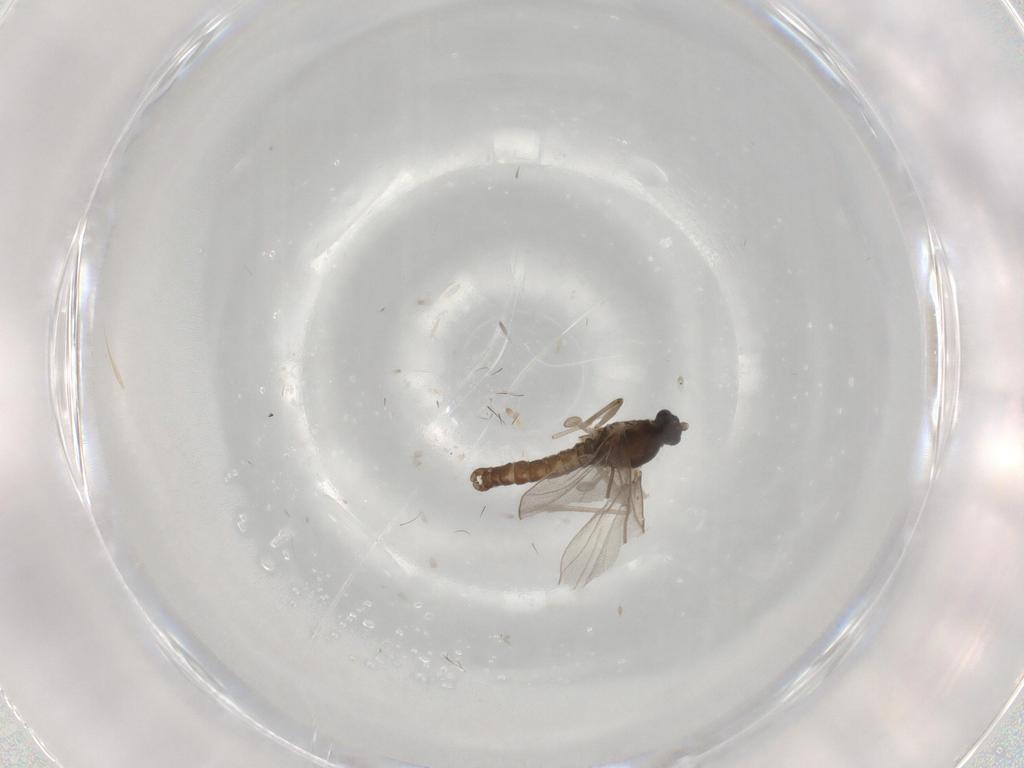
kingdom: Animalia
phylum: Arthropoda
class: Insecta
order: Diptera
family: Cecidomyiidae
